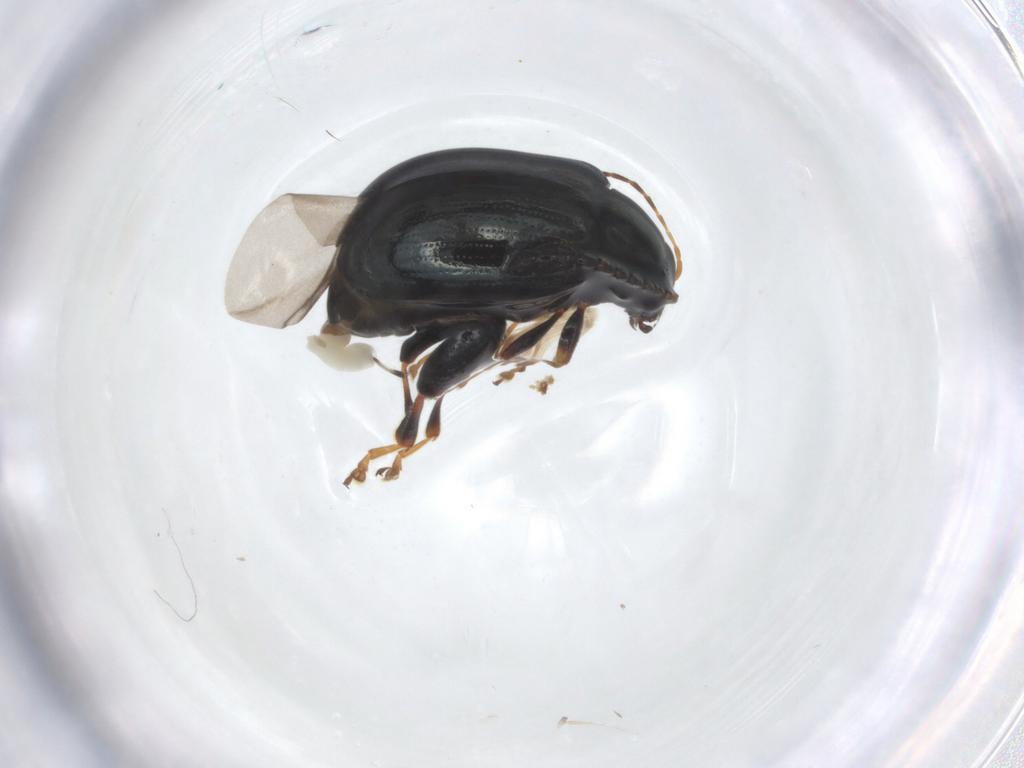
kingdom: Animalia
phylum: Arthropoda
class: Insecta
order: Coleoptera
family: Chrysomelidae
